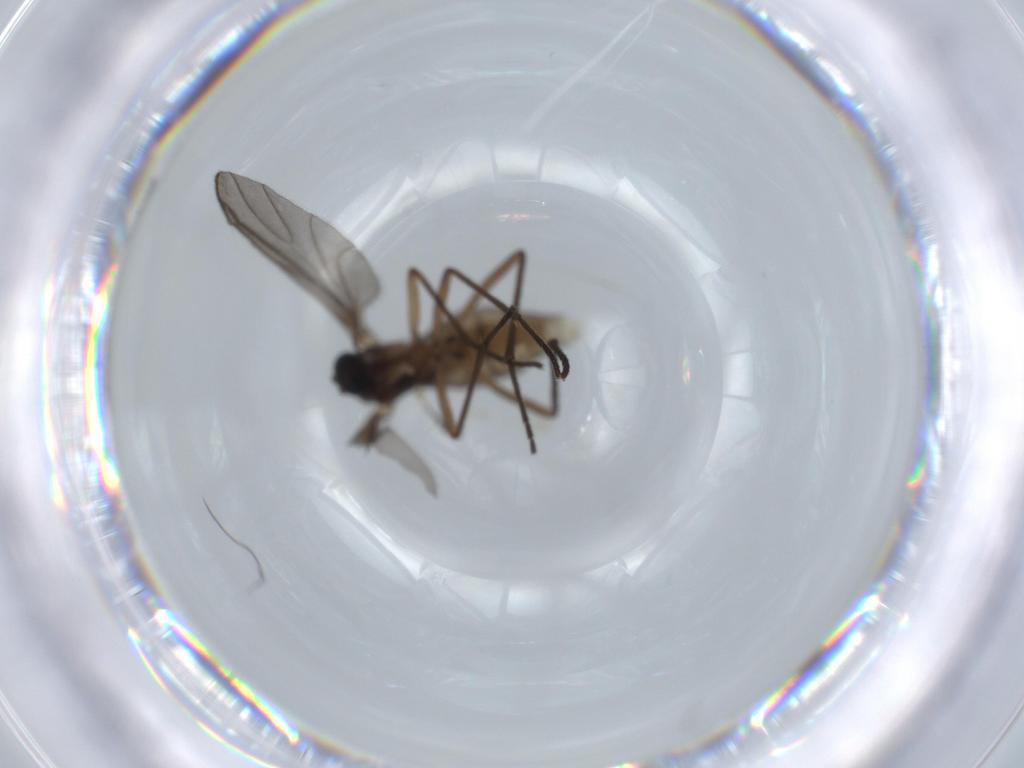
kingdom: Animalia
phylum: Arthropoda
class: Insecta
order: Diptera
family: Sciaridae
